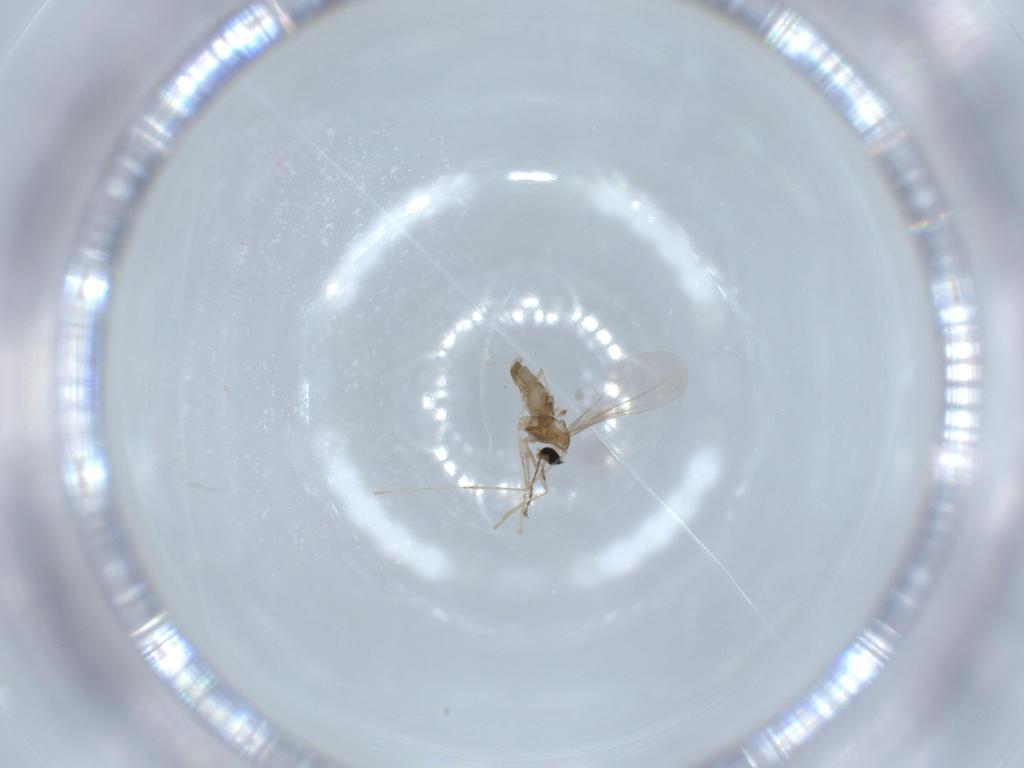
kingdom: Animalia
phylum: Arthropoda
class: Insecta
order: Diptera
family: Cecidomyiidae
